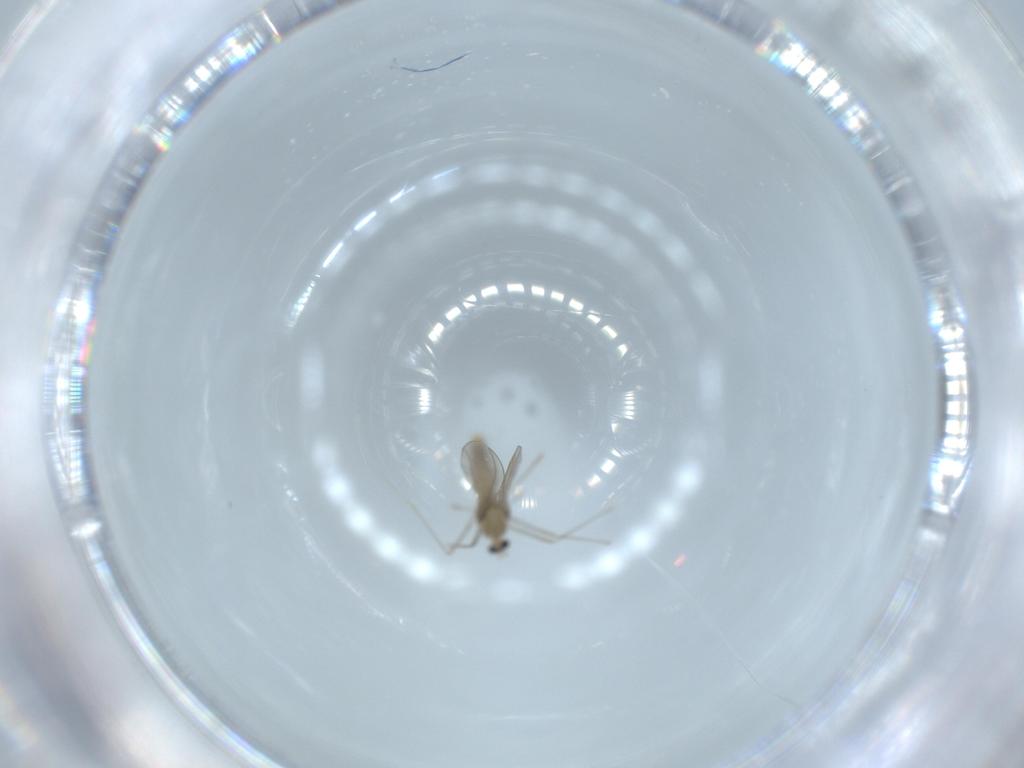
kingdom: Animalia
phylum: Arthropoda
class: Insecta
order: Diptera
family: Cecidomyiidae
